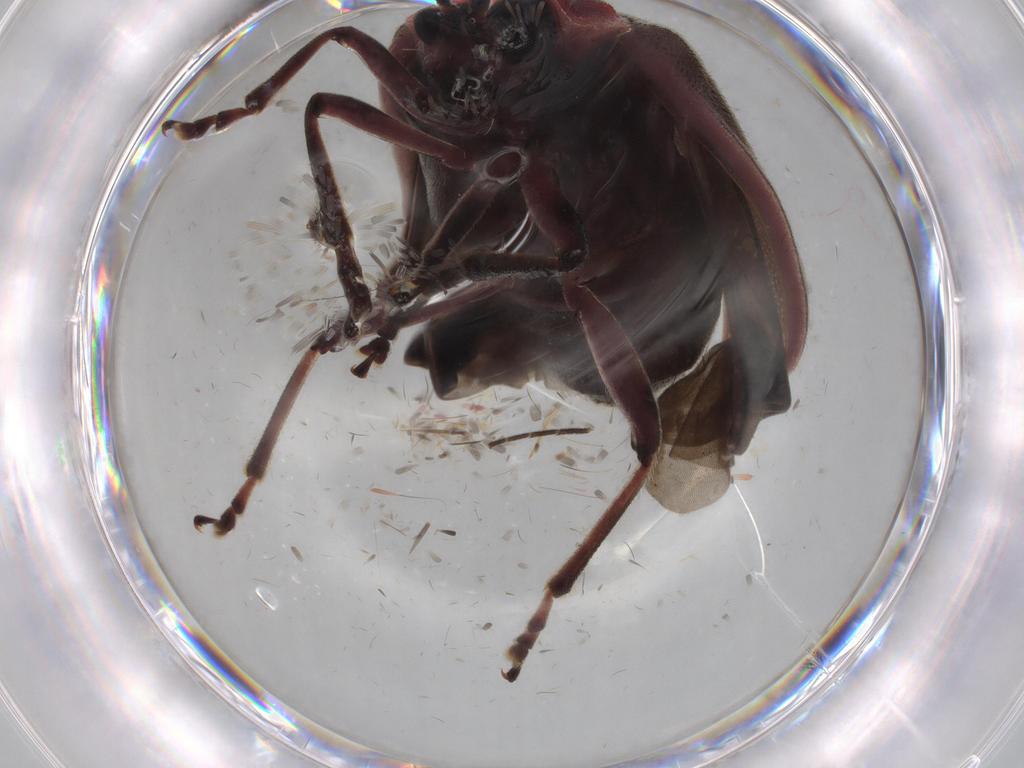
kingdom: Animalia
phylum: Arthropoda
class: Insecta
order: Coleoptera
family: Chrysomelidae
